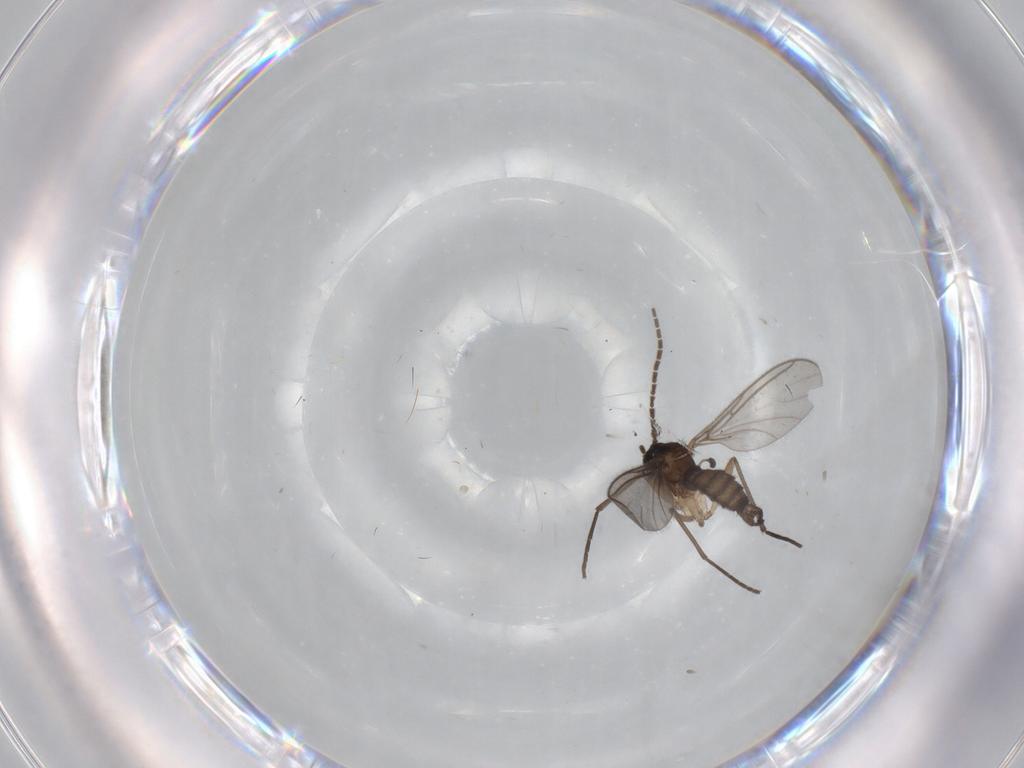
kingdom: Animalia
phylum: Arthropoda
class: Insecta
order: Diptera
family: Sciaridae
